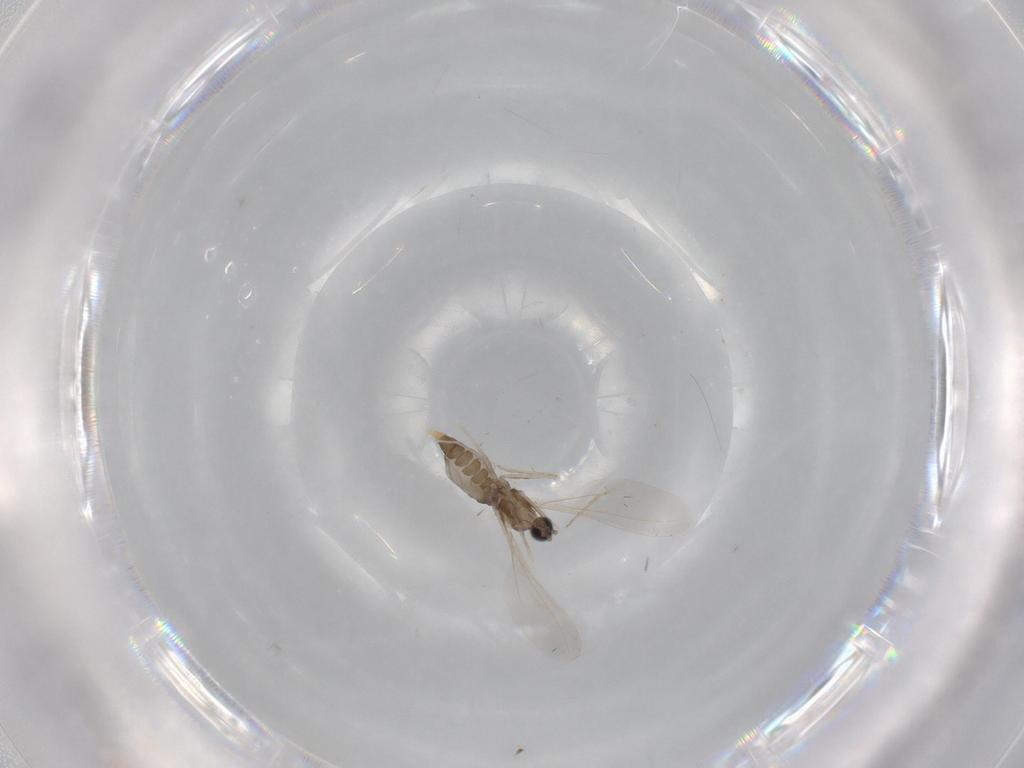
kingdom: Animalia
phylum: Arthropoda
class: Insecta
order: Diptera
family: Cecidomyiidae
